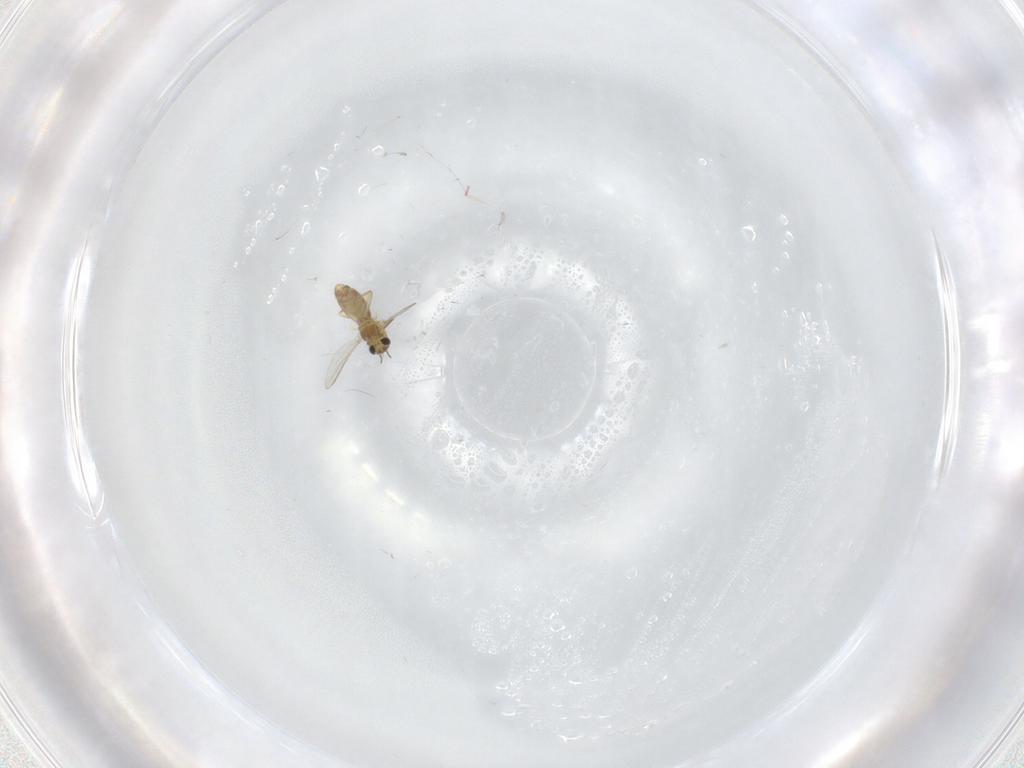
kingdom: Animalia
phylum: Arthropoda
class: Insecta
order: Diptera
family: Chironomidae
